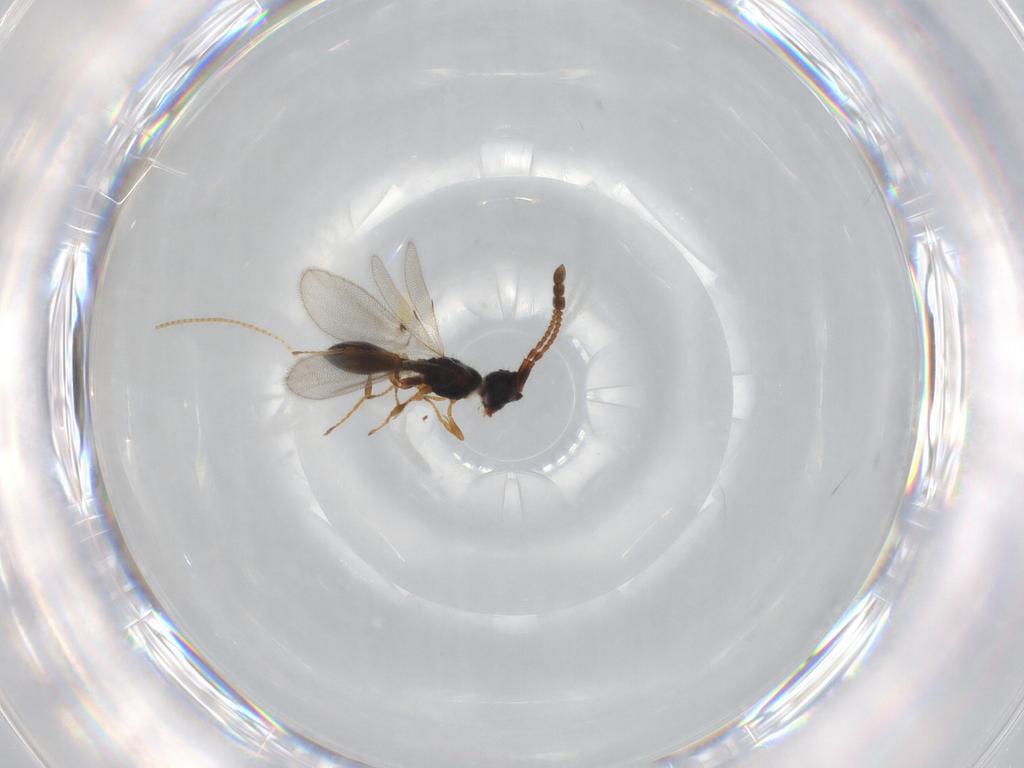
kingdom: Animalia
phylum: Arthropoda
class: Insecta
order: Hymenoptera
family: Diapriidae
